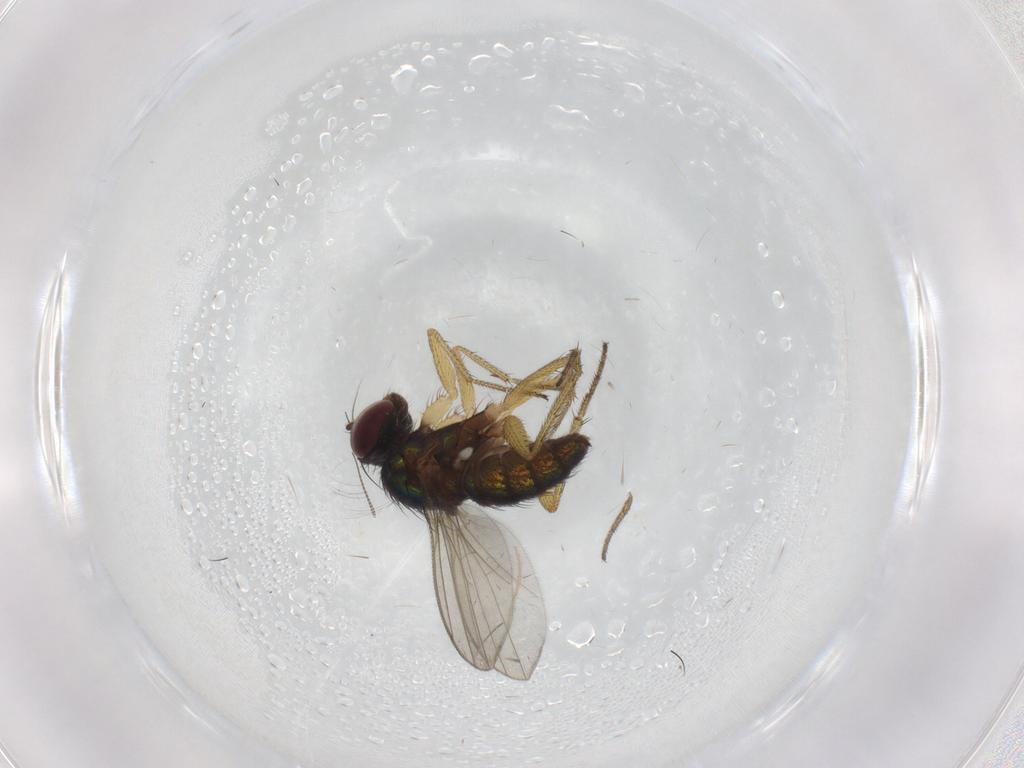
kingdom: Animalia
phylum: Arthropoda
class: Insecta
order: Diptera
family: Chironomidae
